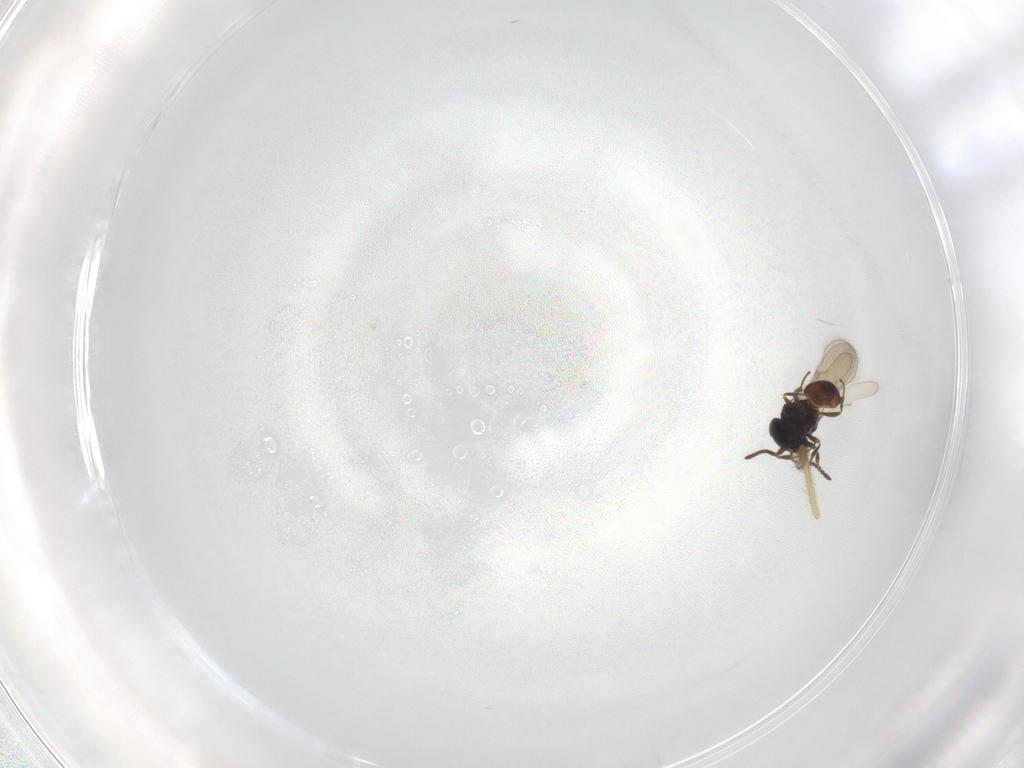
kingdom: Animalia
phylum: Arthropoda
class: Insecta
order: Hymenoptera
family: Scelionidae
